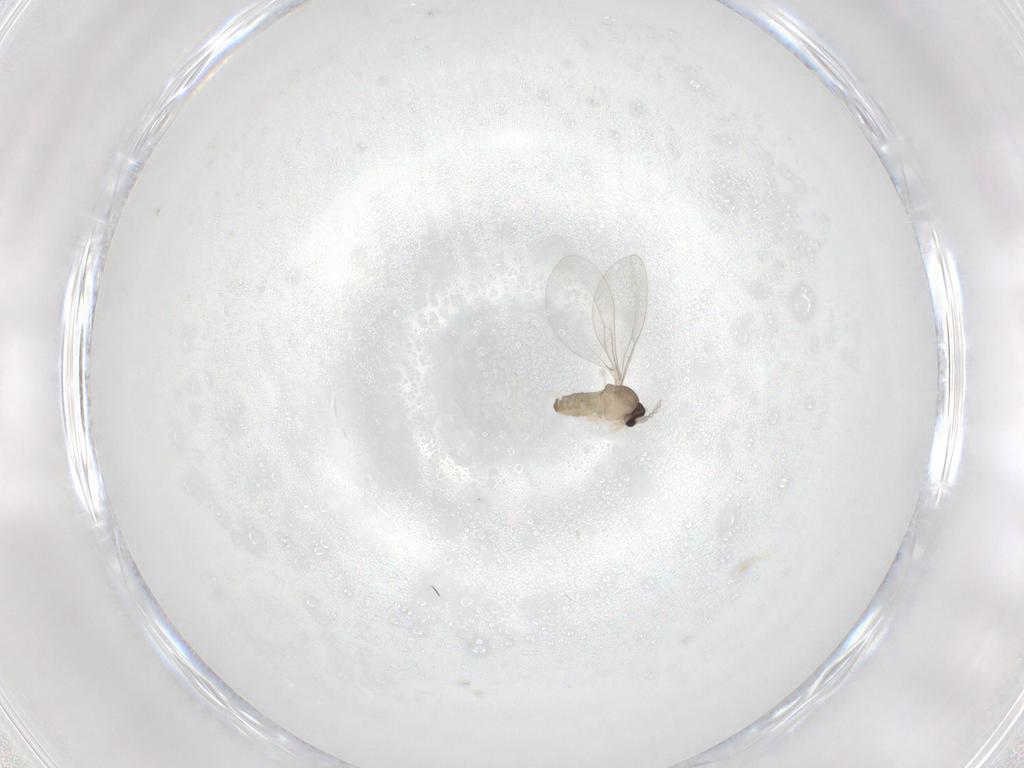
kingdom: Animalia
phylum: Arthropoda
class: Insecta
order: Diptera
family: Cecidomyiidae
